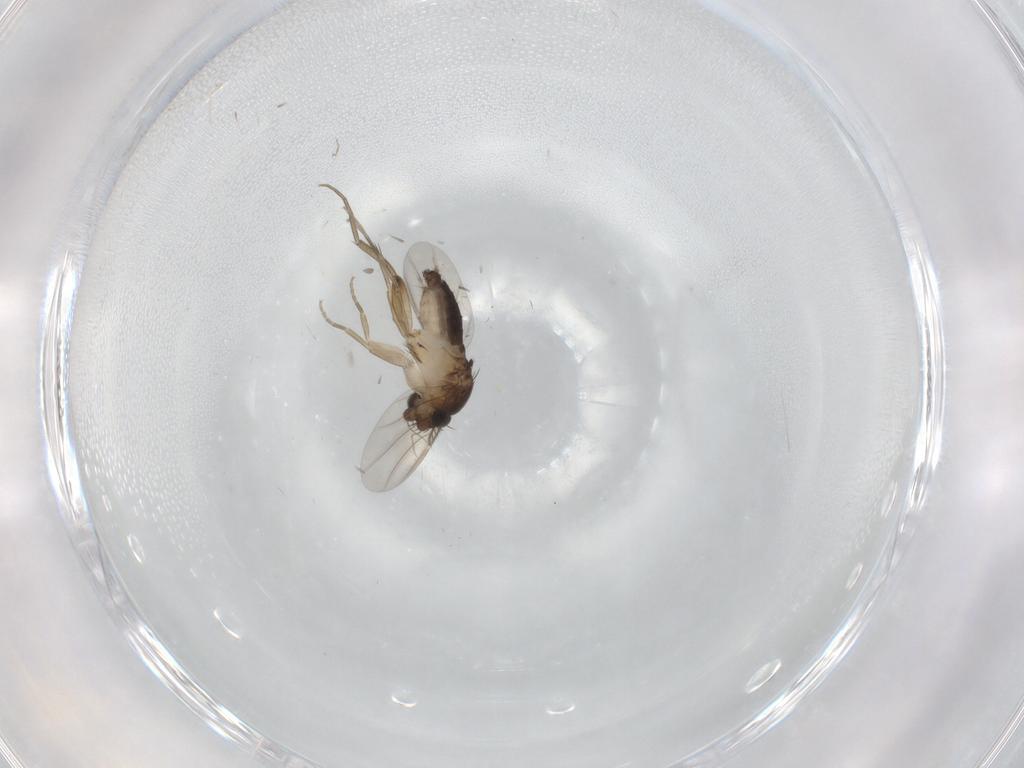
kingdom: Animalia
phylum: Arthropoda
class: Insecta
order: Diptera
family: Phoridae
